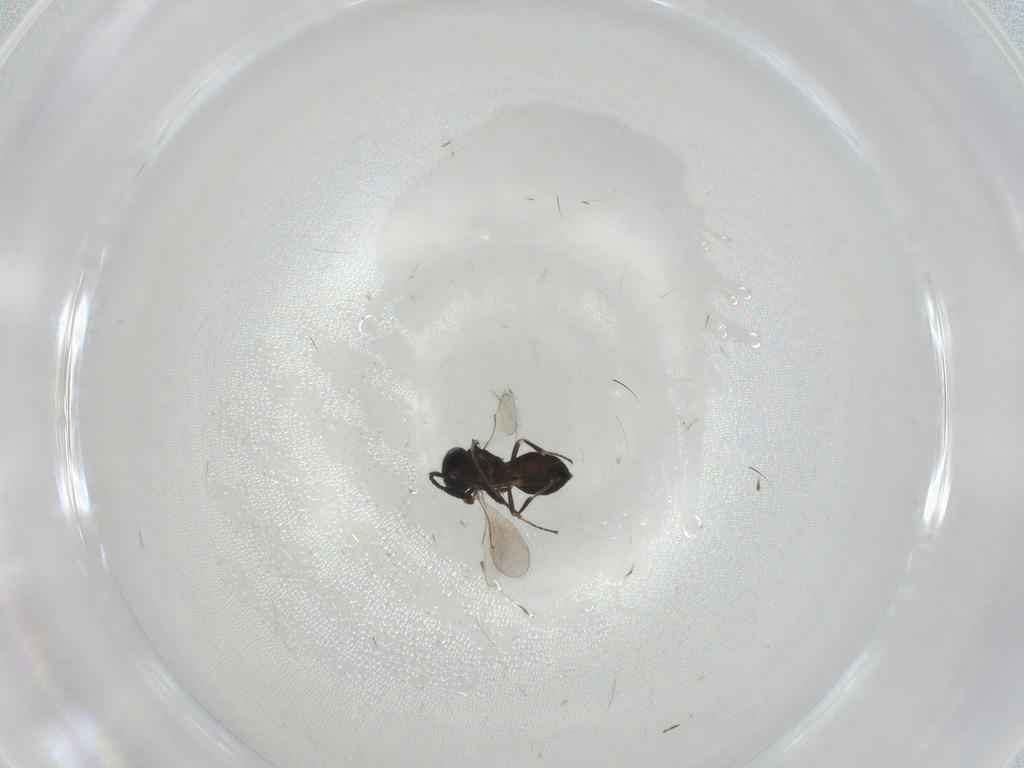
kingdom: Animalia
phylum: Arthropoda
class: Insecta
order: Hymenoptera
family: Scelionidae
